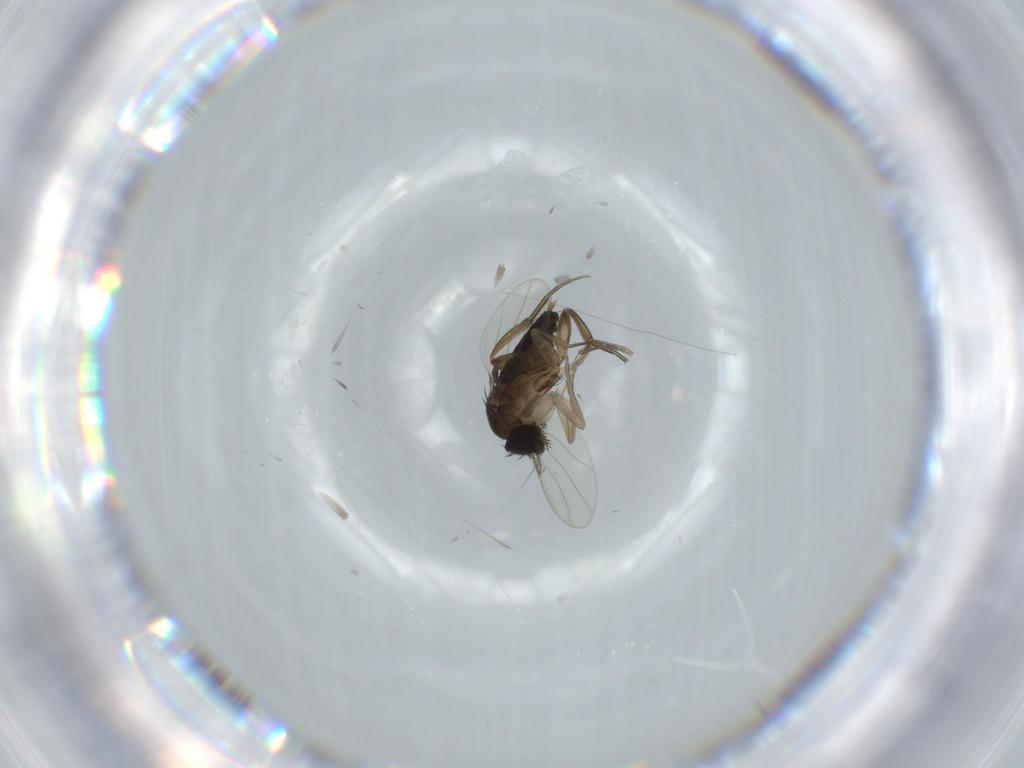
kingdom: Animalia
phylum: Arthropoda
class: Insecta
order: Diptera
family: Phoridae
